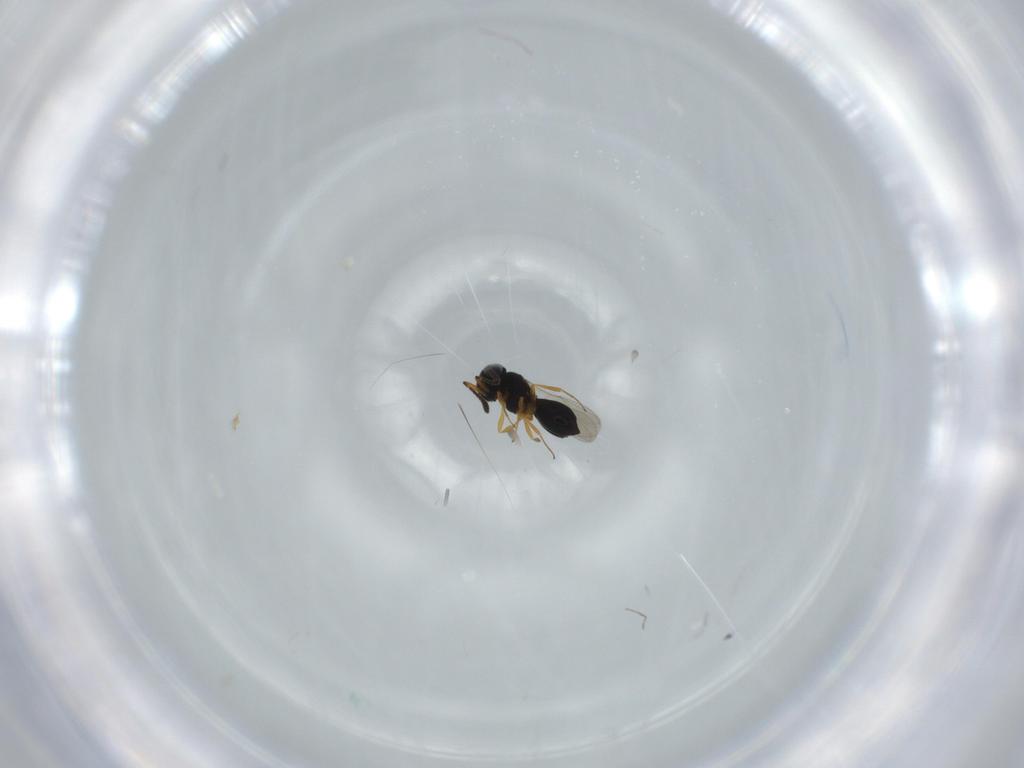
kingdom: Animalia
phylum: Arthropoda
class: Insecta
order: Hymenoptera
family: Scelionidae
